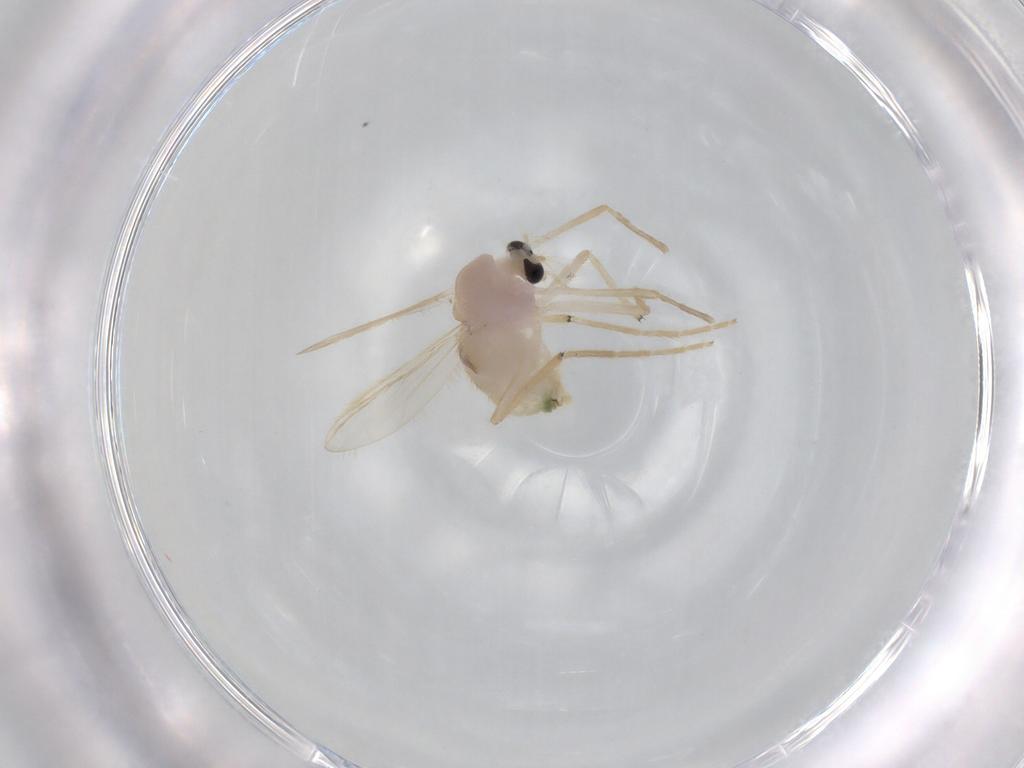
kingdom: Animalia
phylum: Arthropoda
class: Insecta
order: Diptera
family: Chironomidae
